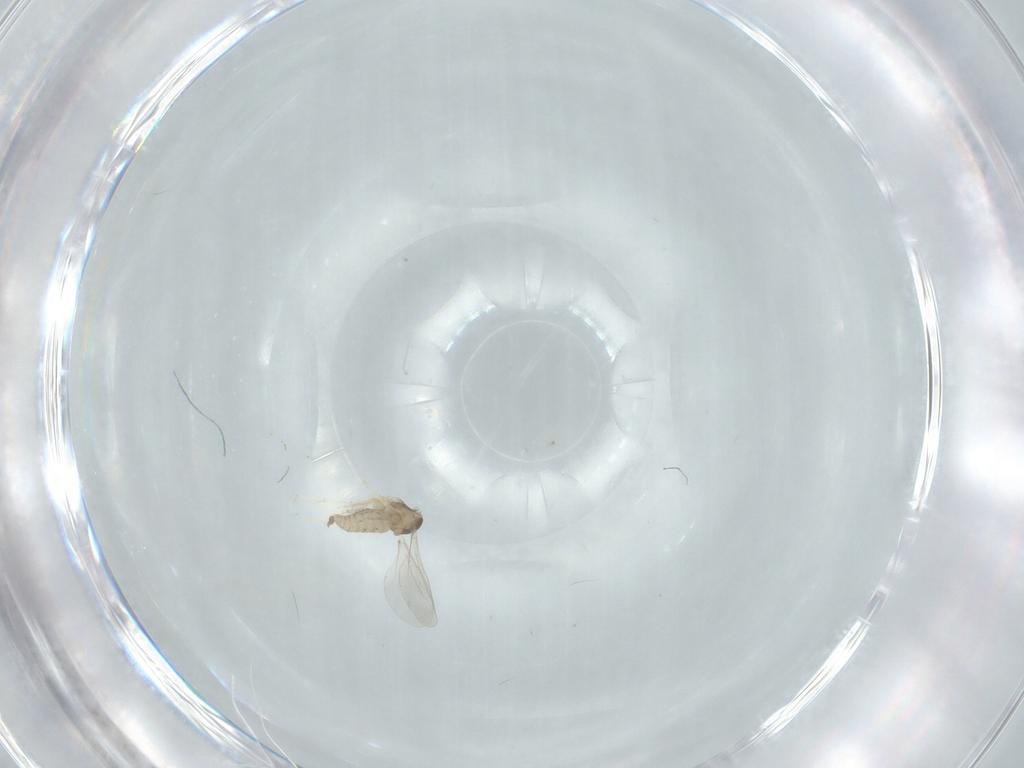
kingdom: Animalia
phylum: Arthropoda
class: Insecta
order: Diptera
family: Cecidomyiidae
